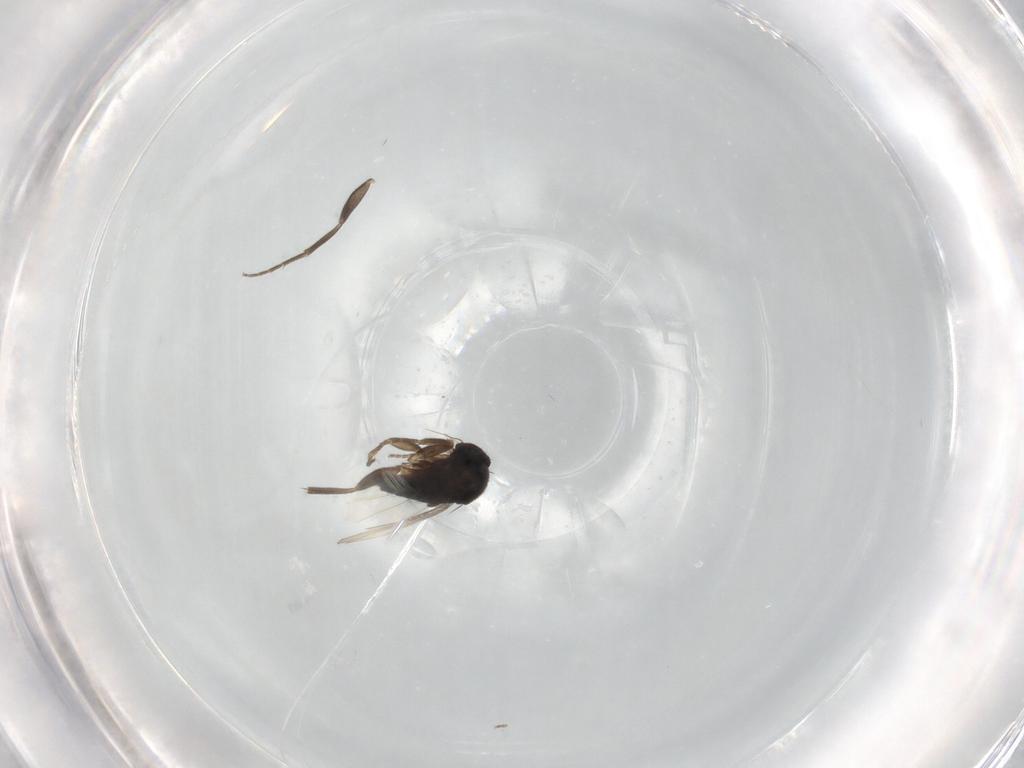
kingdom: Animalia
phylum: Arthropoda
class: Insecta
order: Diptera
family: Phoridae
